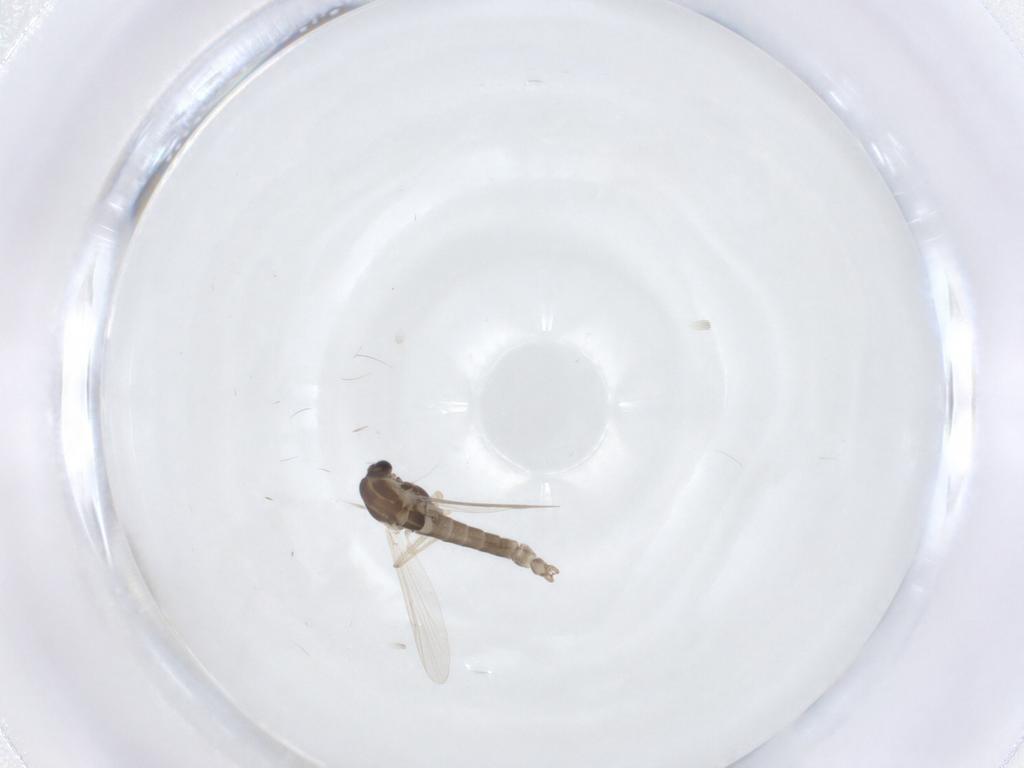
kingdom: Animalia
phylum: Arthropoda
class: Insecta
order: Diptera
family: Chironomidae
